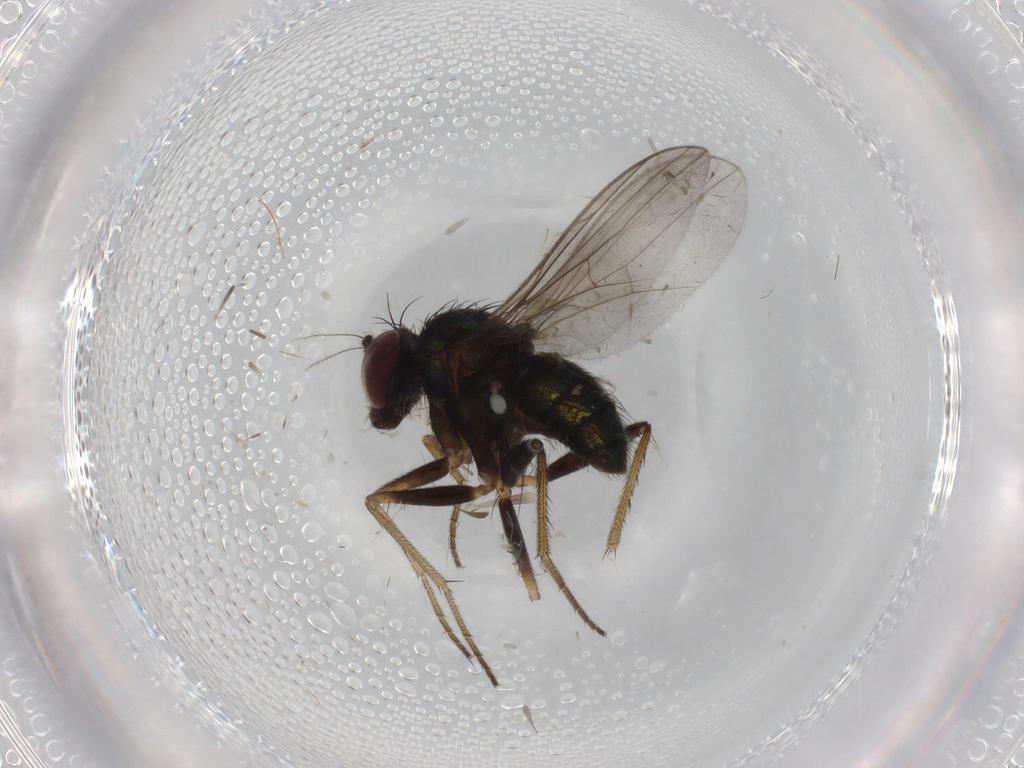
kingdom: Animalia
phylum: Arthropoda
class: Insecta
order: Diptera
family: Dolichopodidae
